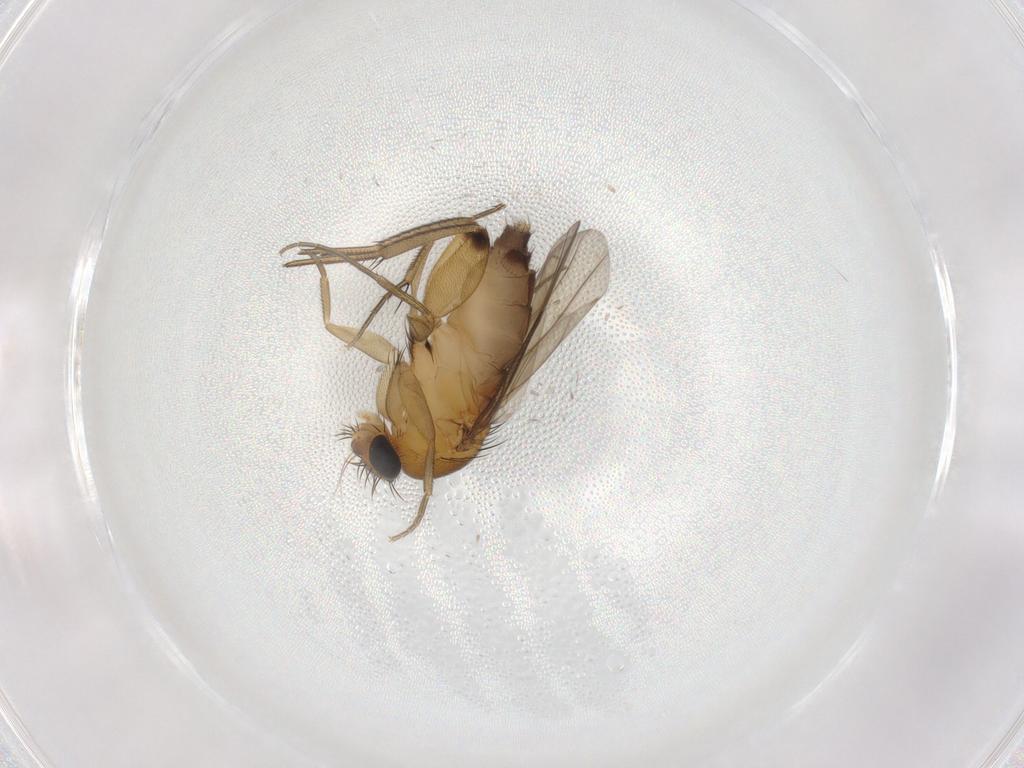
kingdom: Animalia
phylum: Arthropoda
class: Insecta
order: Diptera
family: Phoridae
